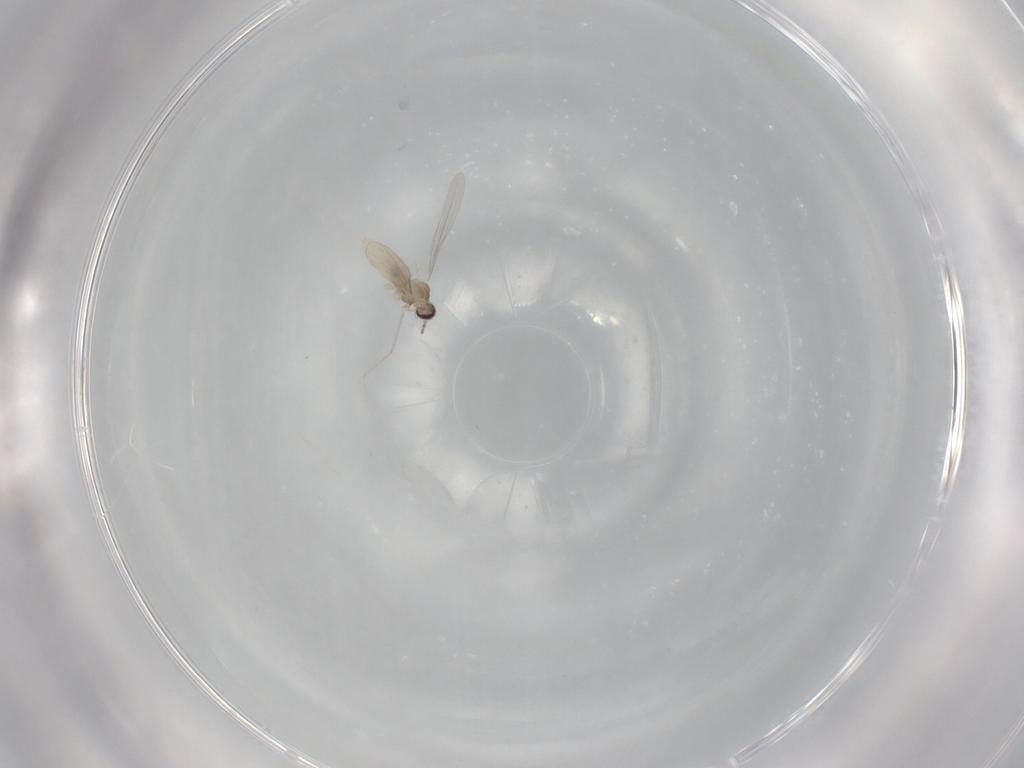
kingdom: Animalia
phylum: Arthropoda
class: Insecta
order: Diptera
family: Cecidomyiidae
